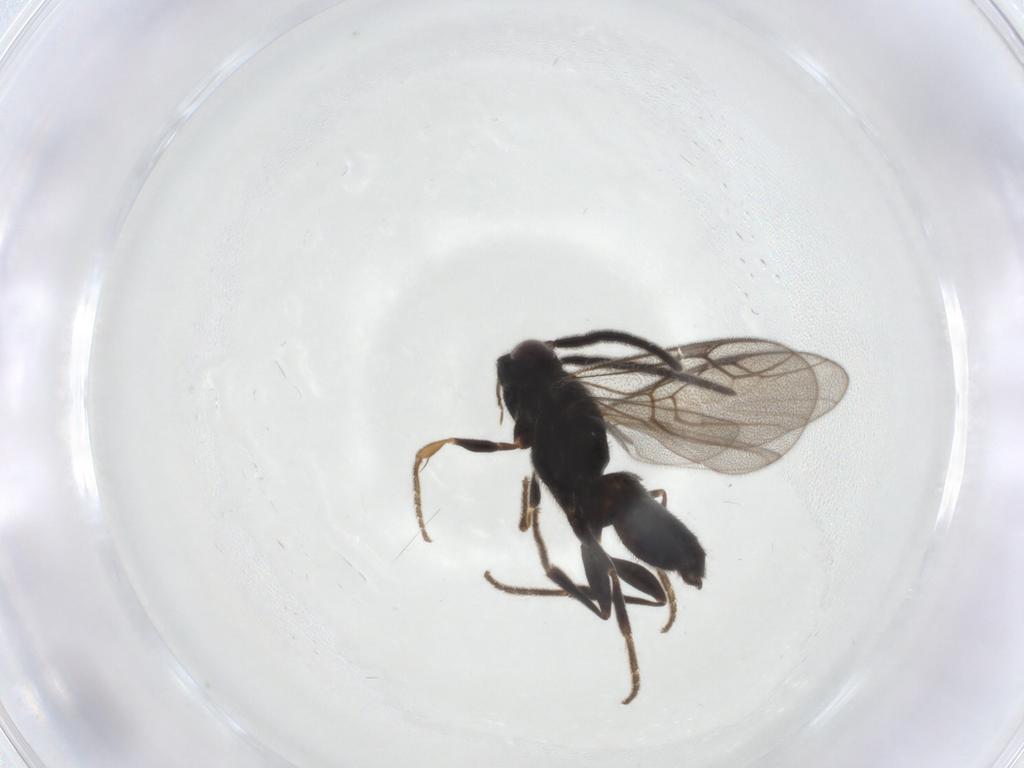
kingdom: Animalia
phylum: Arthropoda
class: Insecta
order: Hymenoptera
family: Dryinidae
